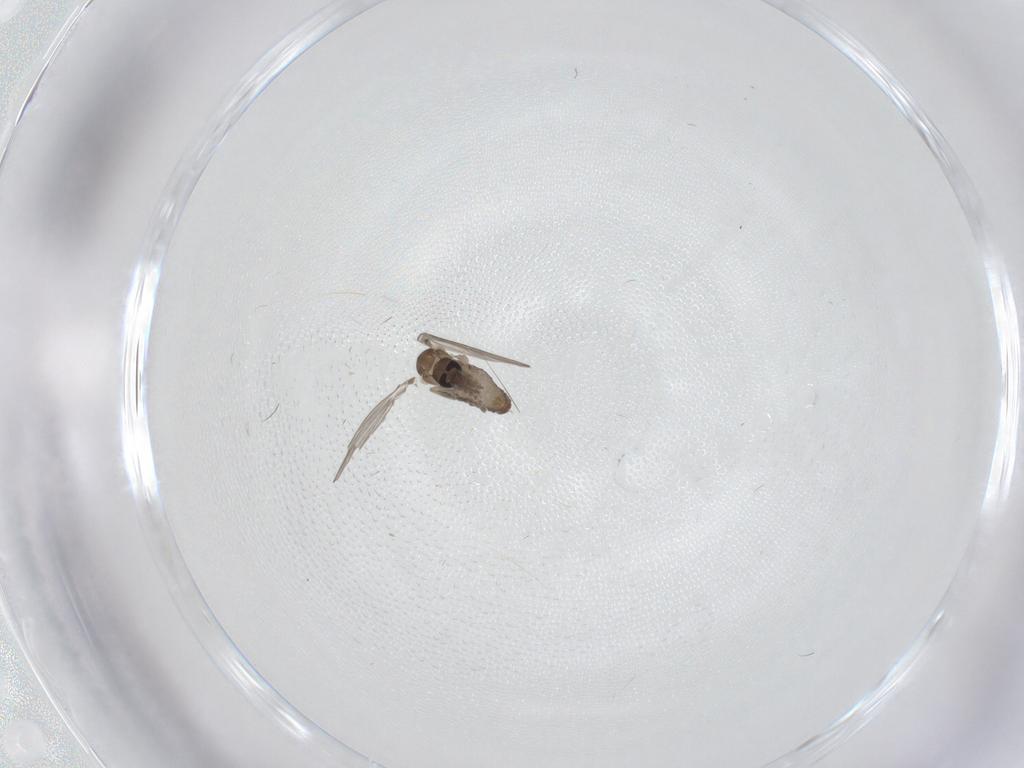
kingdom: Animalia
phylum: Arthropoda
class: Insecta
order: Diptera
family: Psychodidae
